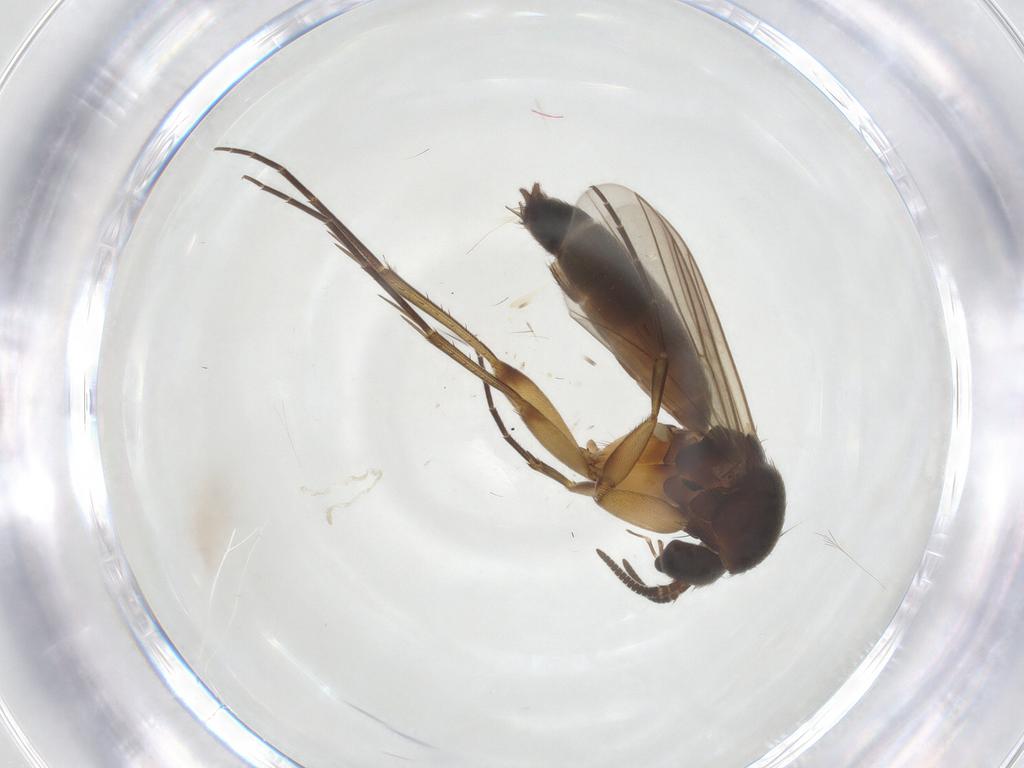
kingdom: Animalia
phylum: Arthropoda
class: Insecta
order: Diptera
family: Mycetophilidae
